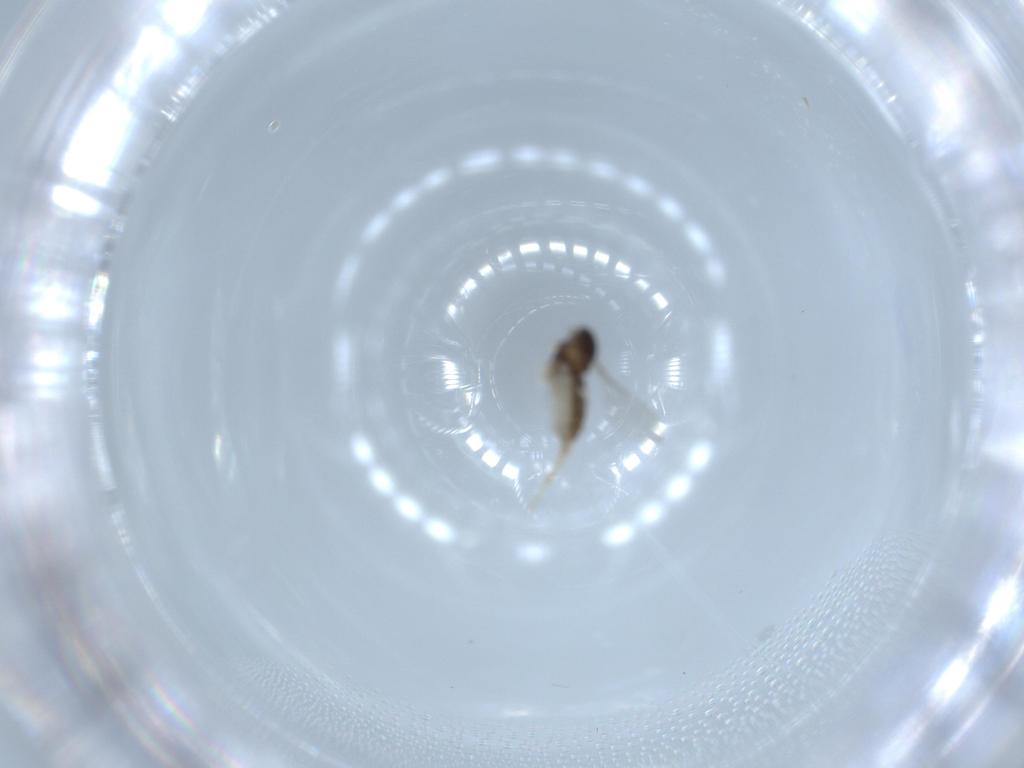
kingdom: Animalia
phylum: Arthropoda
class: Insecta
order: Diptera
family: Cecidomyiidae
